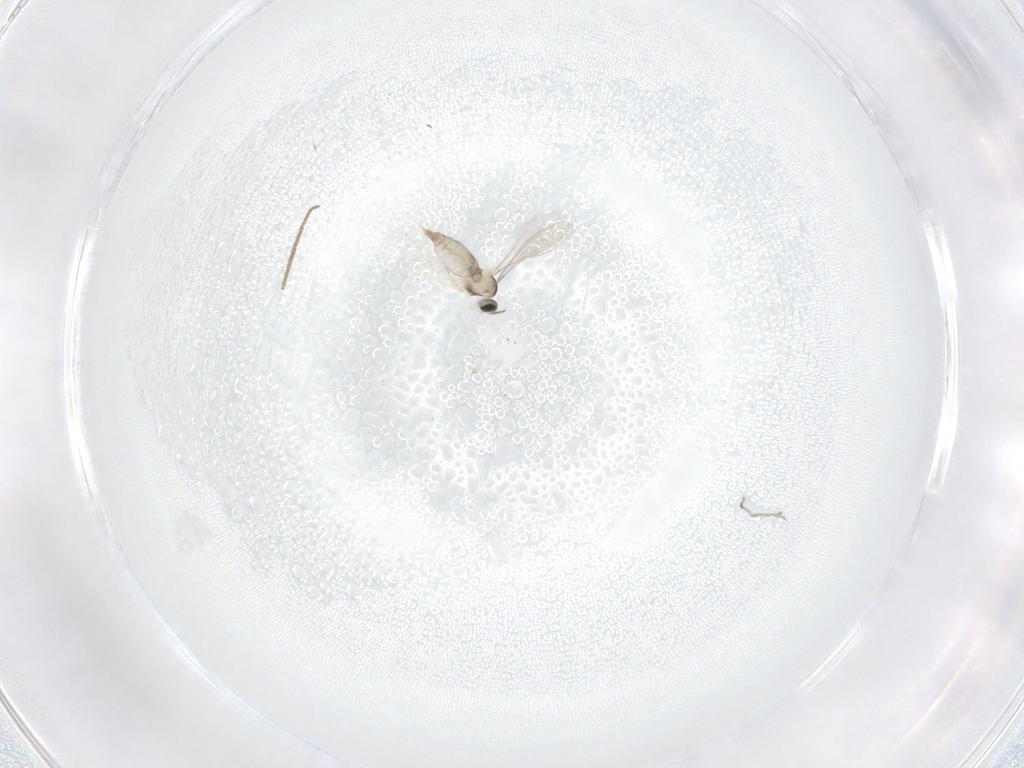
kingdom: Animalia
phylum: Arthropoda
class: Insecta
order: Diptera
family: Chironomidae
